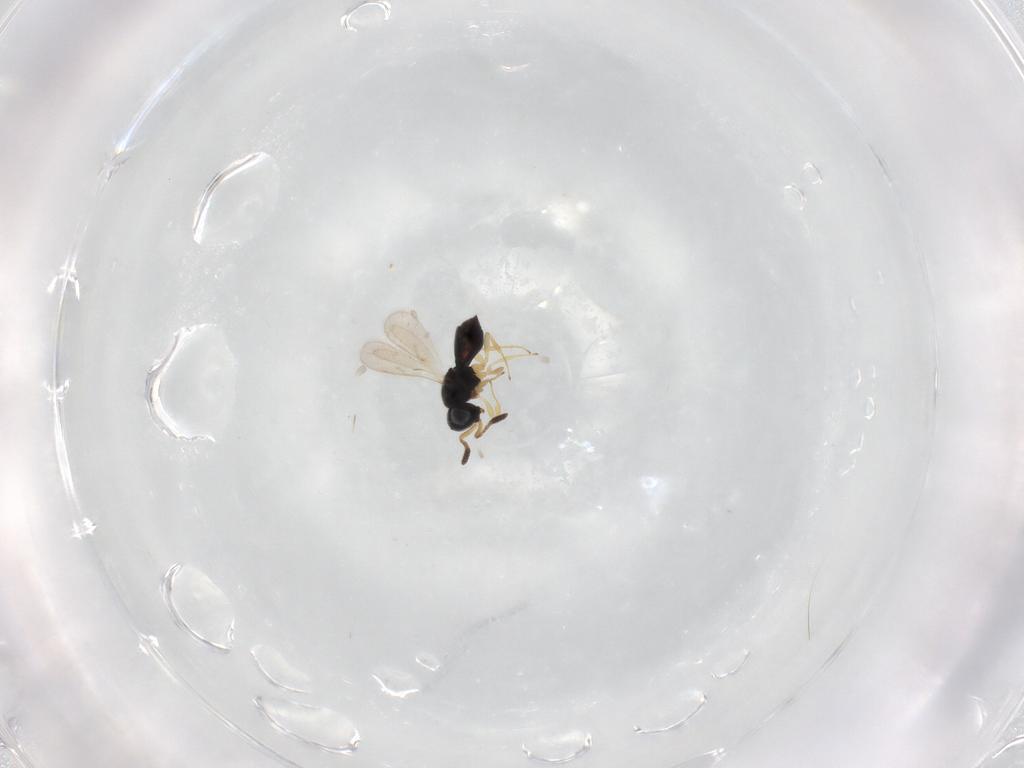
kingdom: Animalia
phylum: Arthropoda
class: Insecta
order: Hymenoptera
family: Scelionidae
